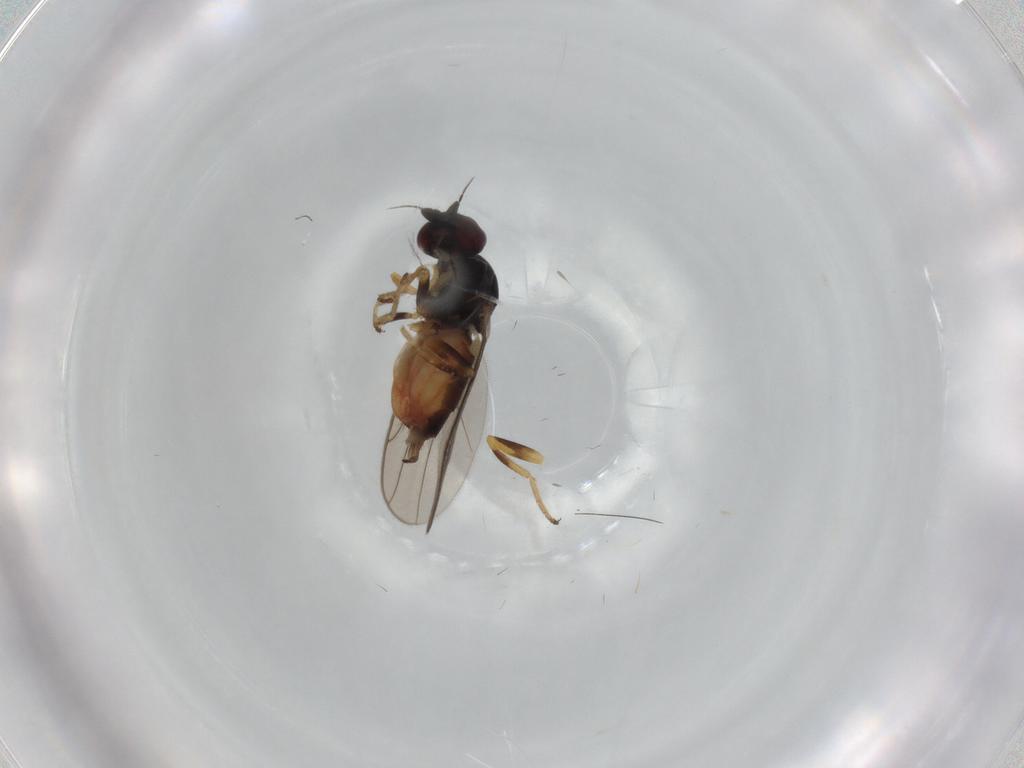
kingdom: Animalia
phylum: Arthropoda
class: Insecta
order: Diptera
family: Chloropidae
